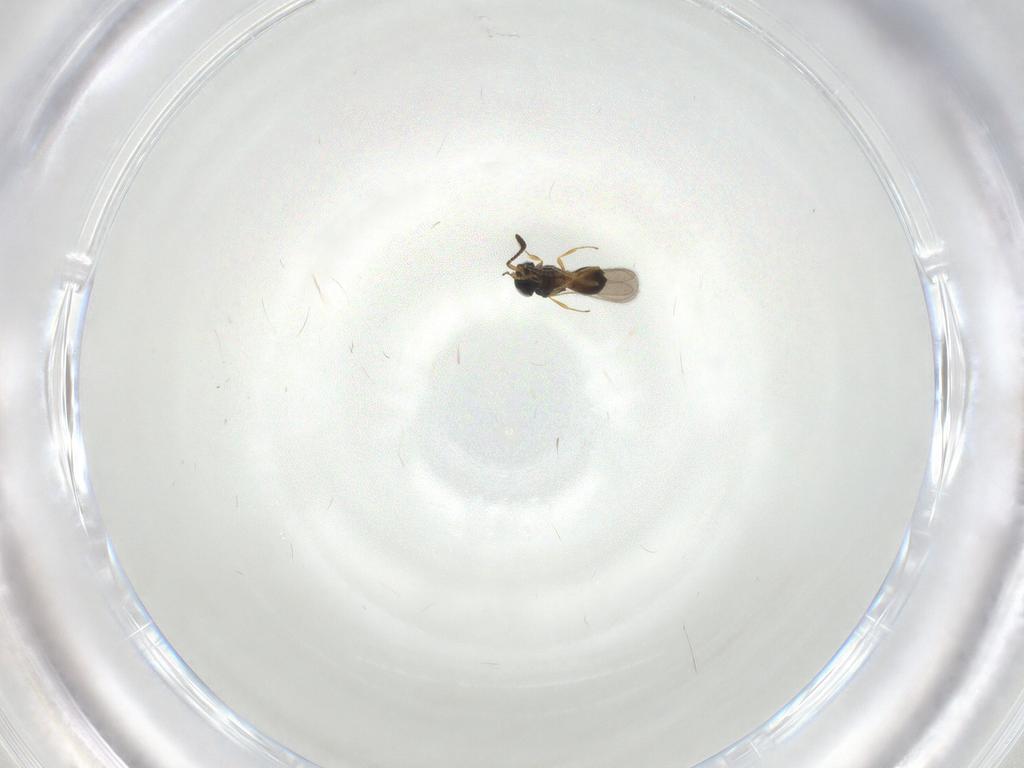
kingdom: Animalia
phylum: Arthropoda
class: Insecta
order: Hymenoptera
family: Scelionidae
